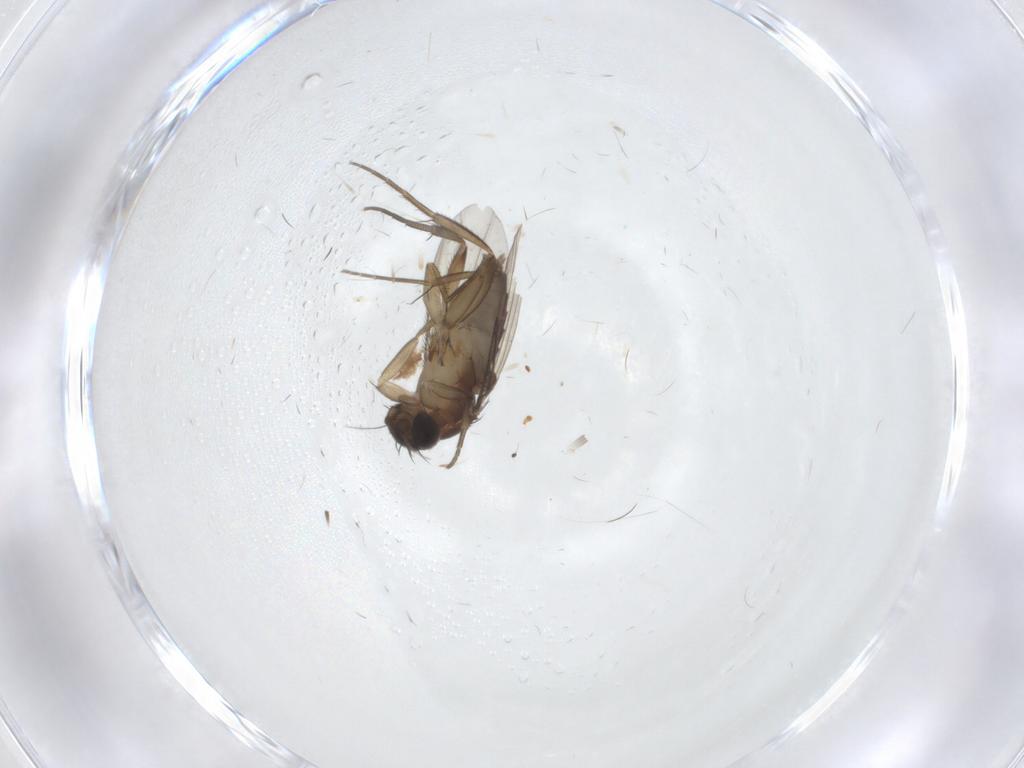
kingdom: Animalia
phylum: Arthropoda
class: Insecta
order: Diptera
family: Phoridae
